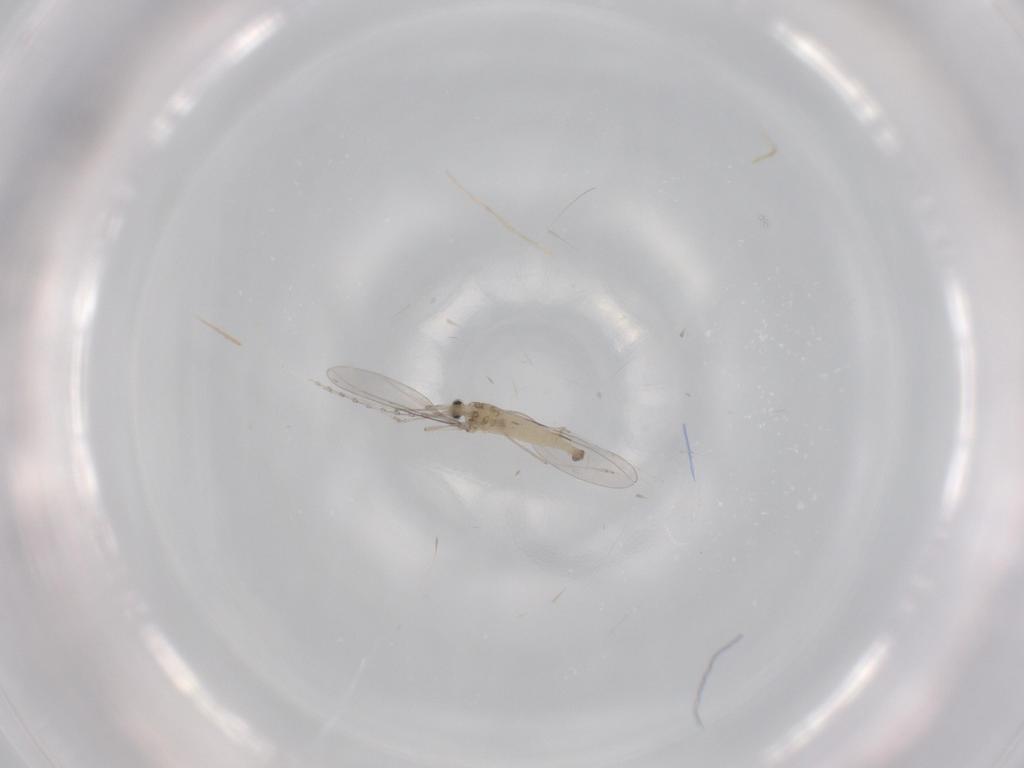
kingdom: Animalia
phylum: Arthropoda
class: Insecta
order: Diptera
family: Cecidomyiidae
